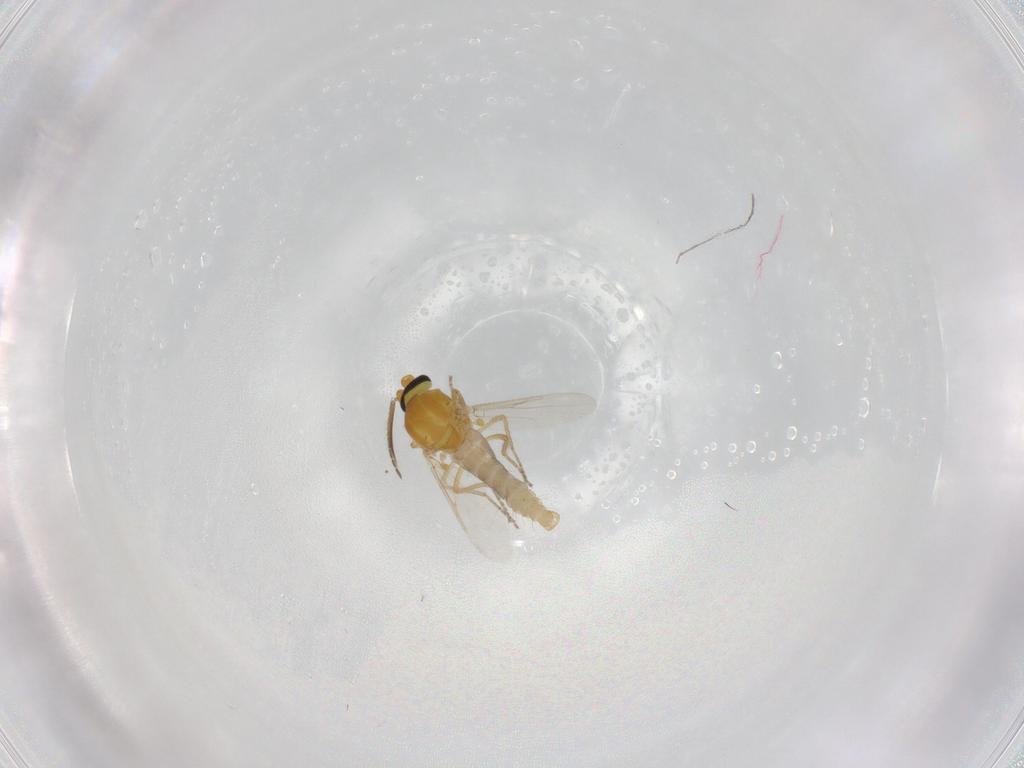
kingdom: Animalia
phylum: Arthropoda
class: Insecta
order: Diptera
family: Ceratopogonidae
